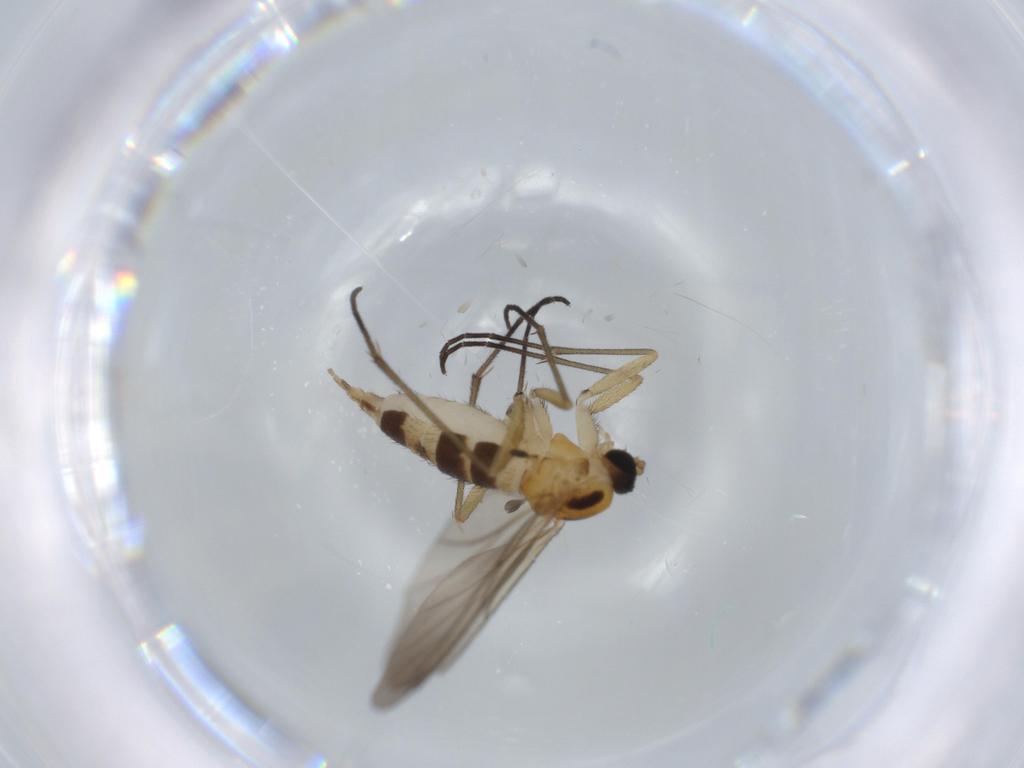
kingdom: Animalia
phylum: Arthropoda
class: Insecta
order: Diptera
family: Sciaridae
